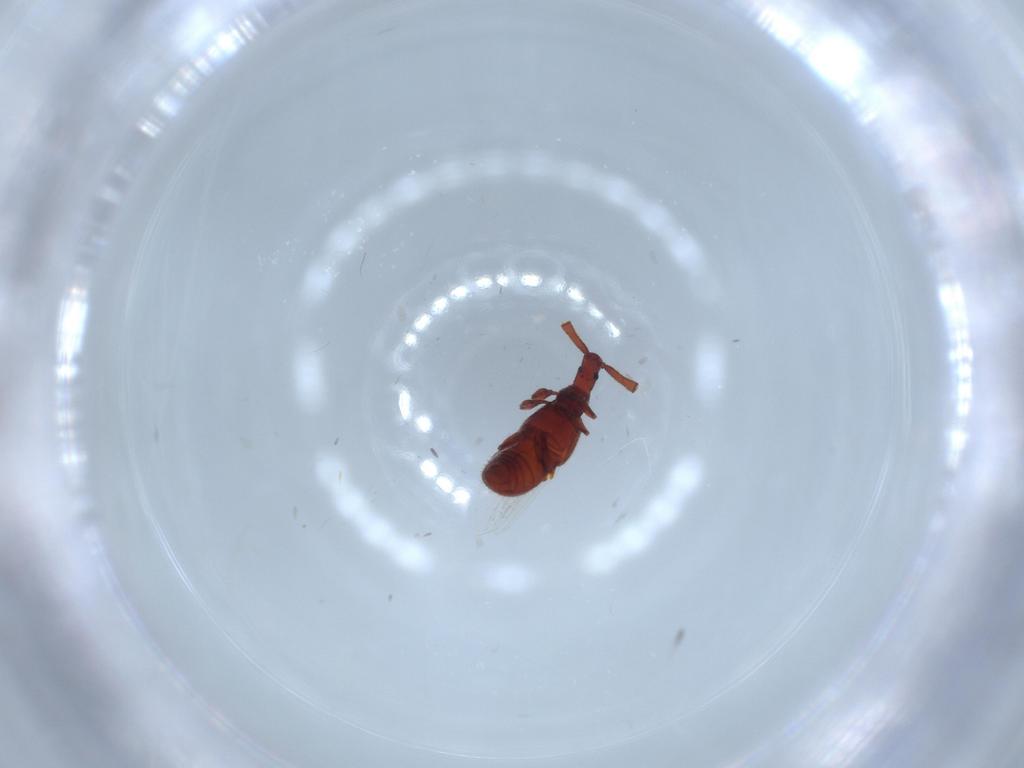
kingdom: Animalia
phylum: Arthropoda
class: Insecta
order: Coleoptera
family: Staphylinidae
